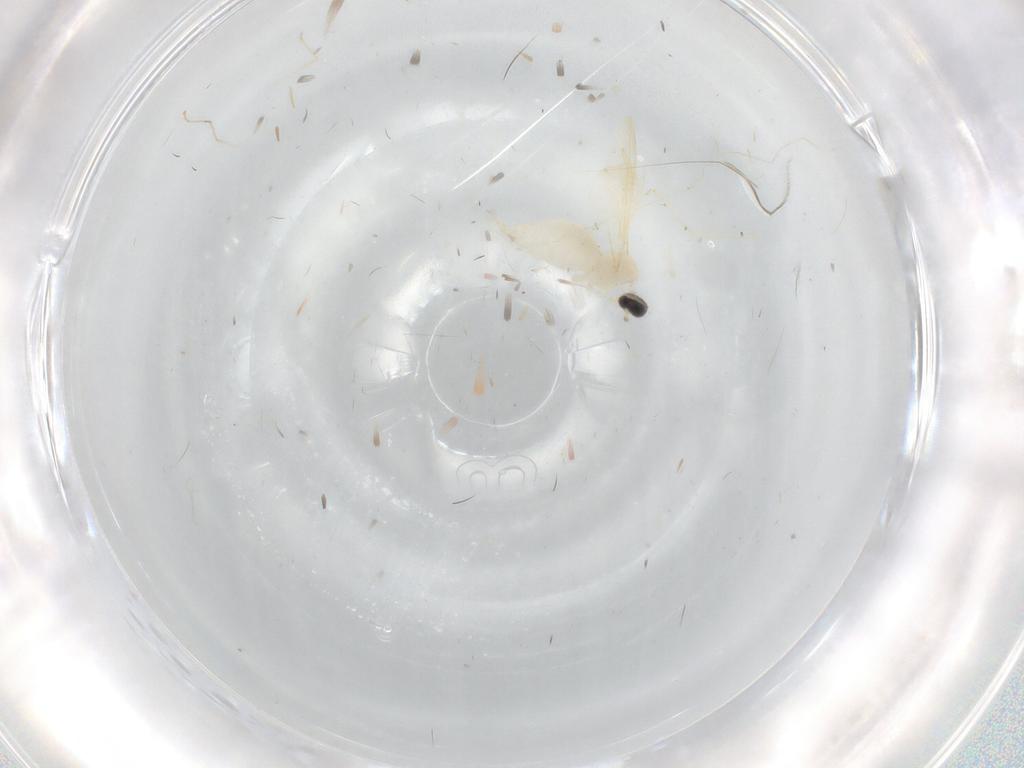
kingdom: Animalia
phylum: Arthropoda
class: Insecta
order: Diptera
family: Cecidomyiidae
